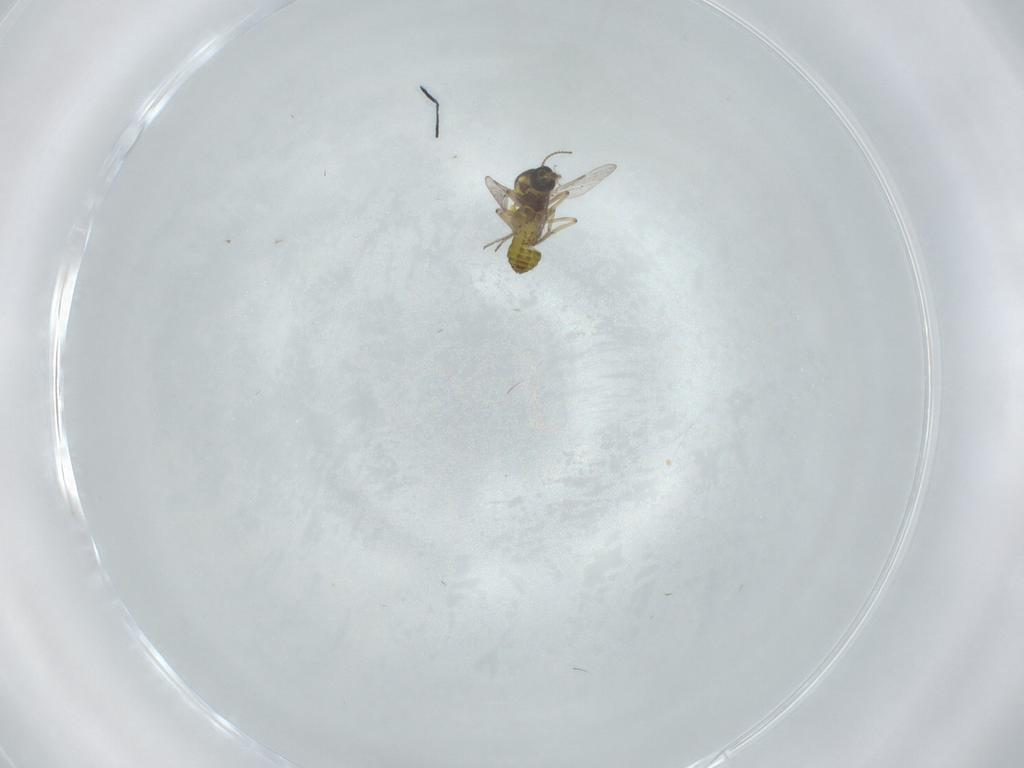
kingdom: Animalia
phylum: Arthropoda
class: Insecta
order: Diptera
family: Ceratopogonidae
